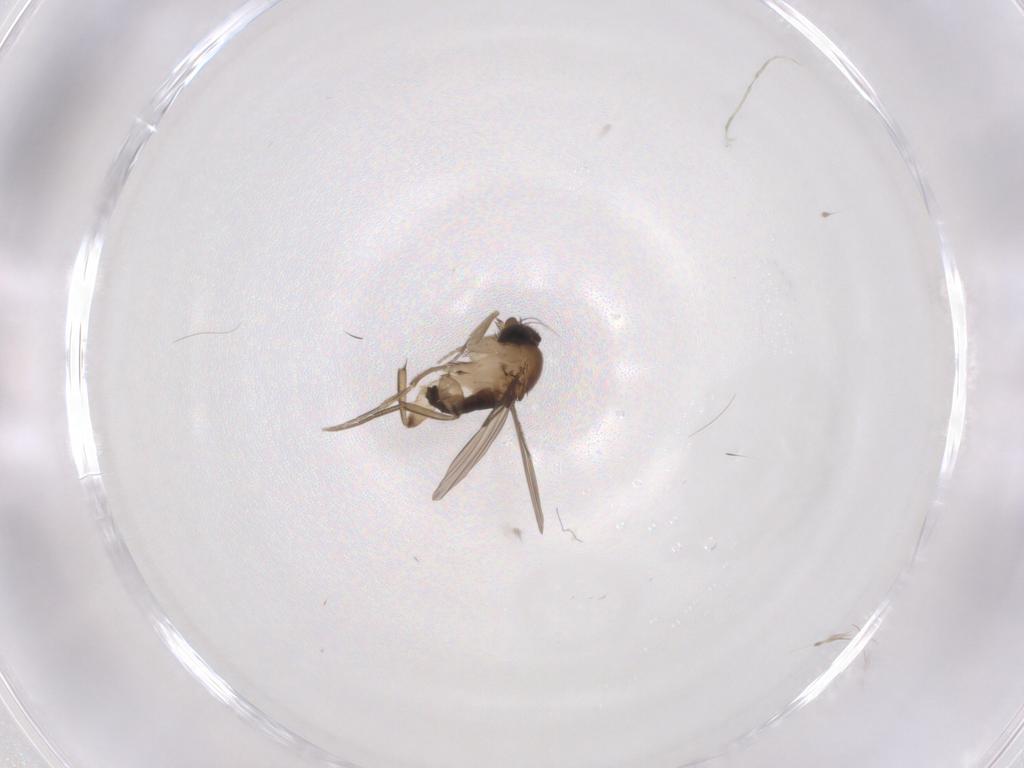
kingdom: Animalia
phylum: Arthropoda
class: Insecta
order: Diptera
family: Phoridae
